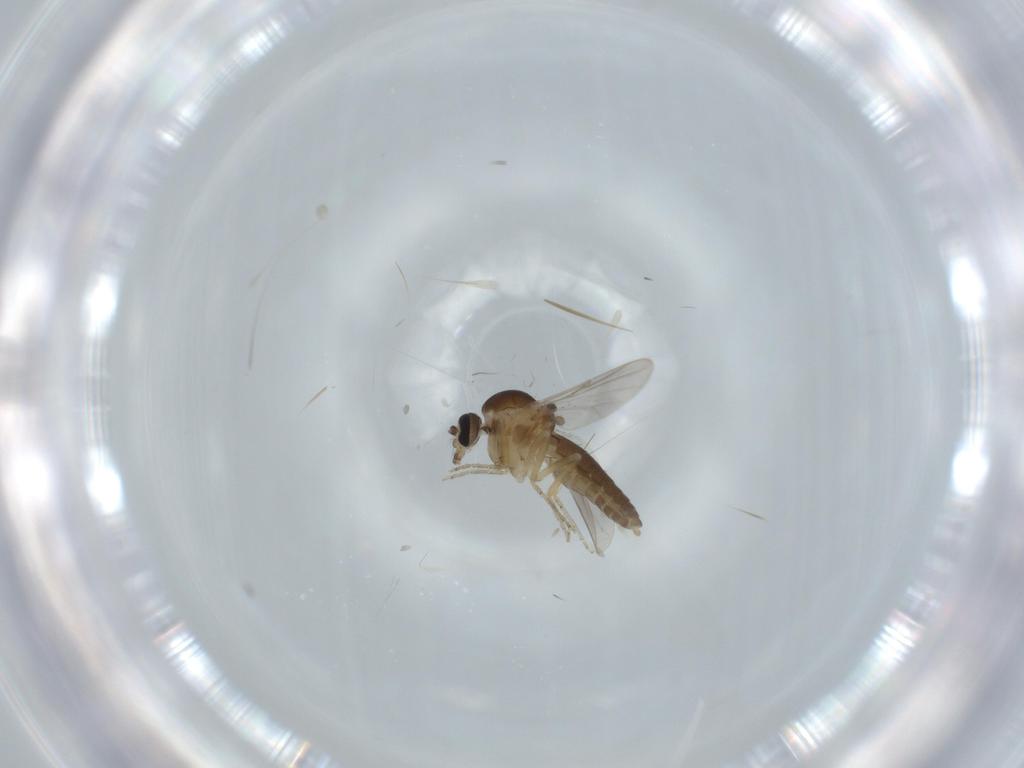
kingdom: Animalia
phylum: Arthropoda
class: Insecta
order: Diptera
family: Ceratopogonidae
